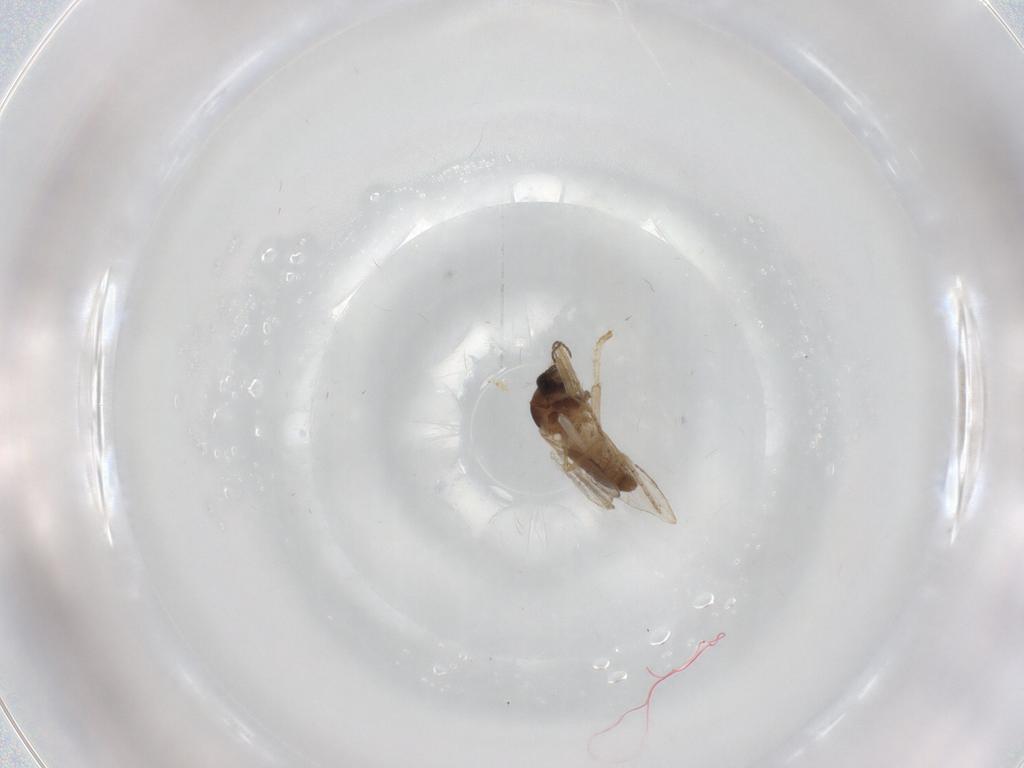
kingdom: Animalia
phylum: Arthropoda
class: Insecta
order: Diptera
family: Ceratopogonidae
